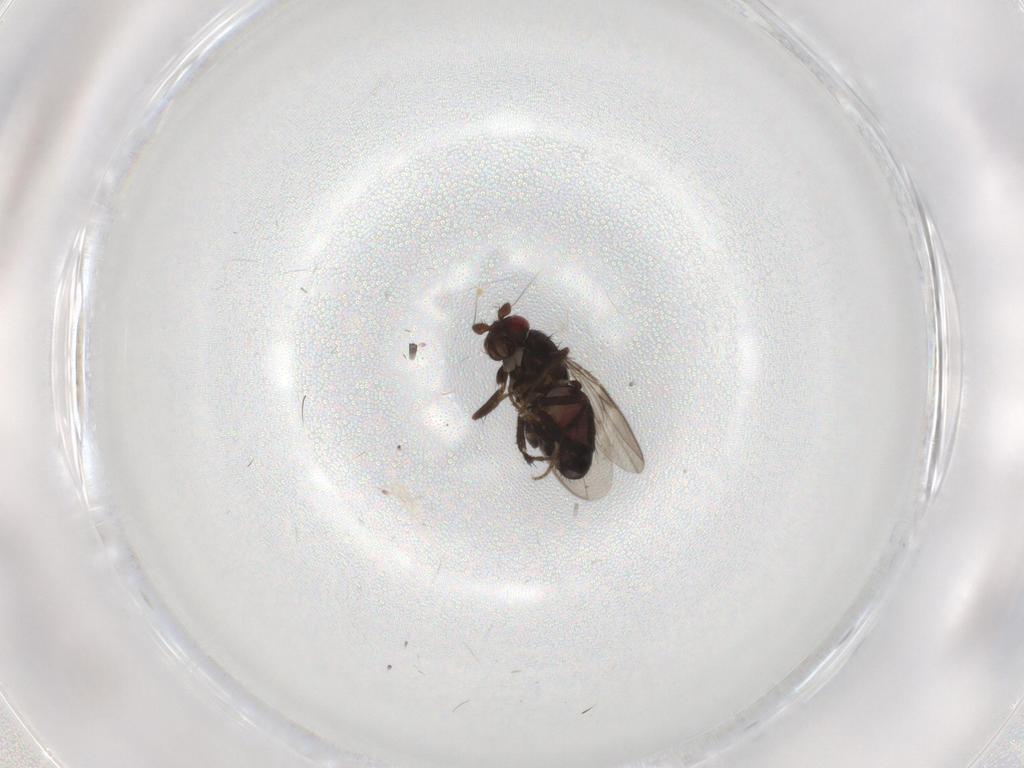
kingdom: Animalia
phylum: Arthropoda
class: Insecta
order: Diptera
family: Sphaeroceridae
